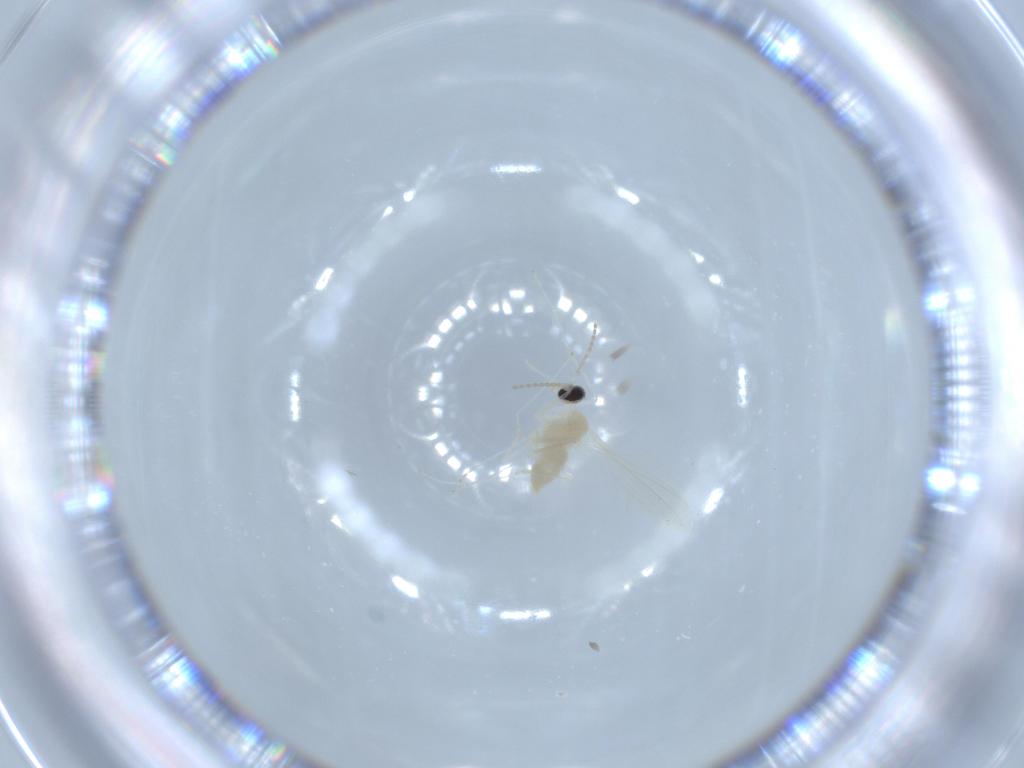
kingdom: Animalia
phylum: Arthropoda
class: Insecta
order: Diptera
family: Cecidomyiidae
